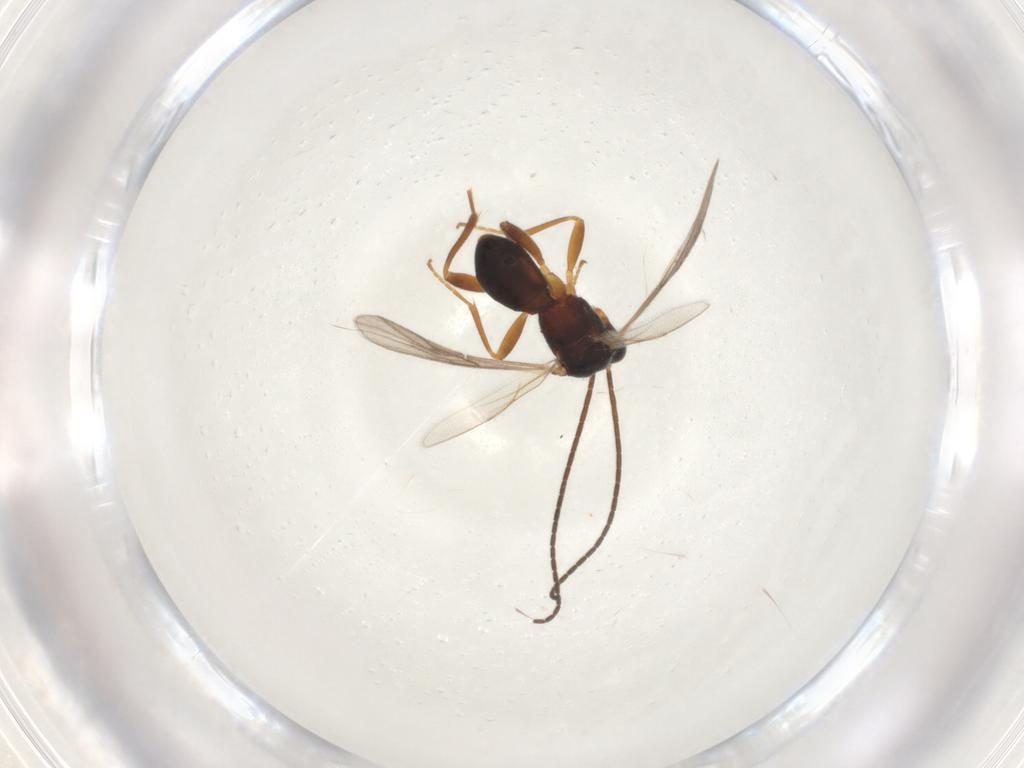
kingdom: Animalia
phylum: Arthropoda
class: Insecta
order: Hymenoptera
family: Braconidae
